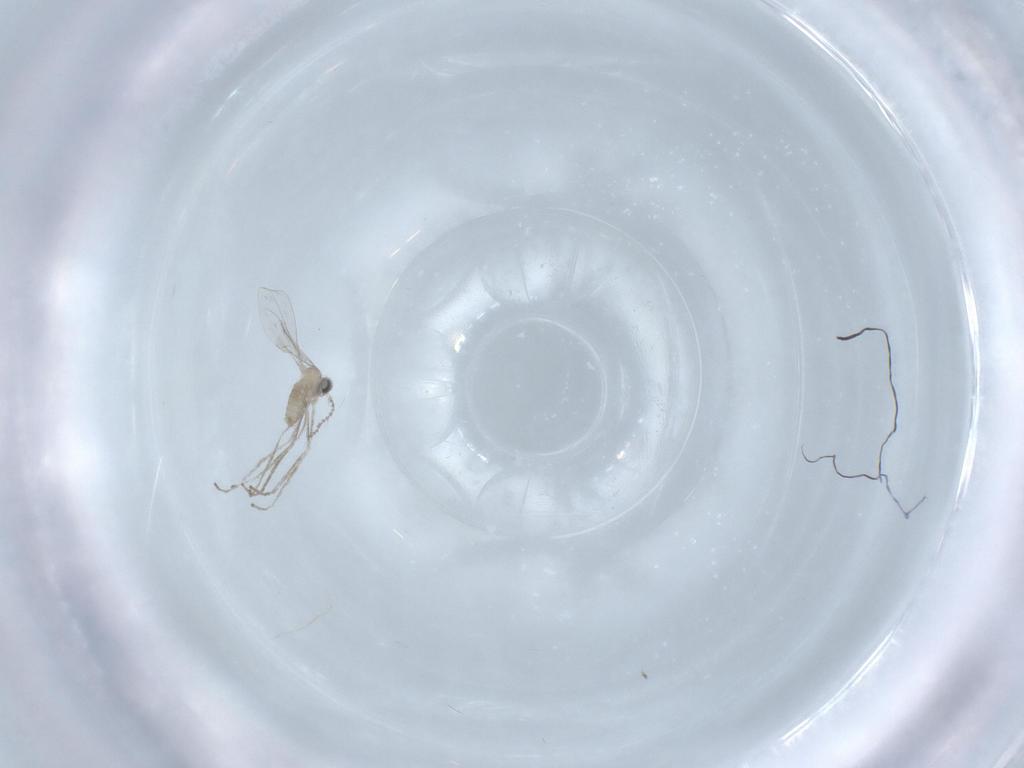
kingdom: Animalia
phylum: Arthropoda
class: Insecta
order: Diptera
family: Cecidomyiidae
